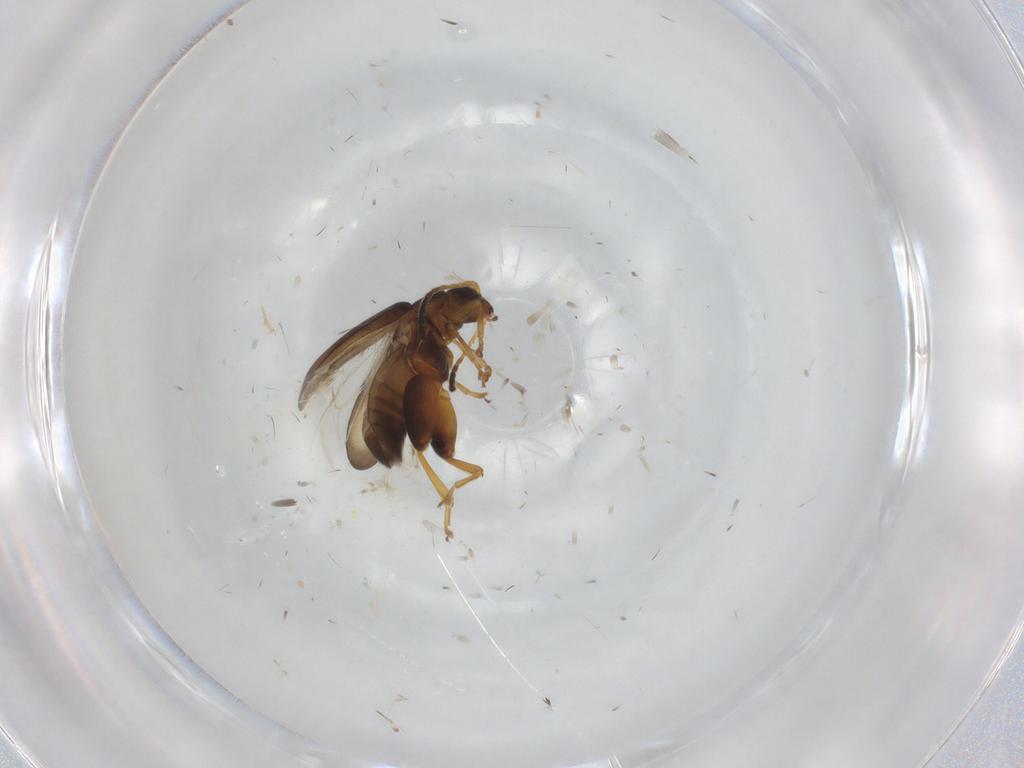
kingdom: Animalia
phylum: Arthropoda
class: Insecta
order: Coleoptera
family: Chrysomelidae
